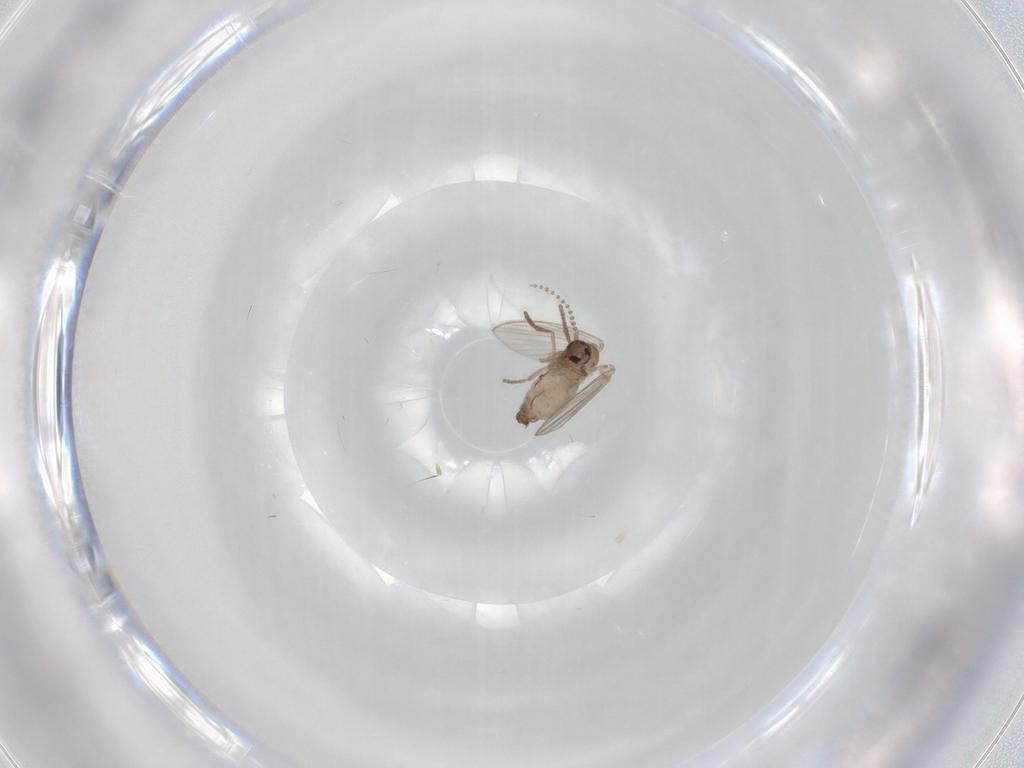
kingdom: Animalia
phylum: Arthropoda
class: Insecta
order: Diptera
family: Psychodidae
